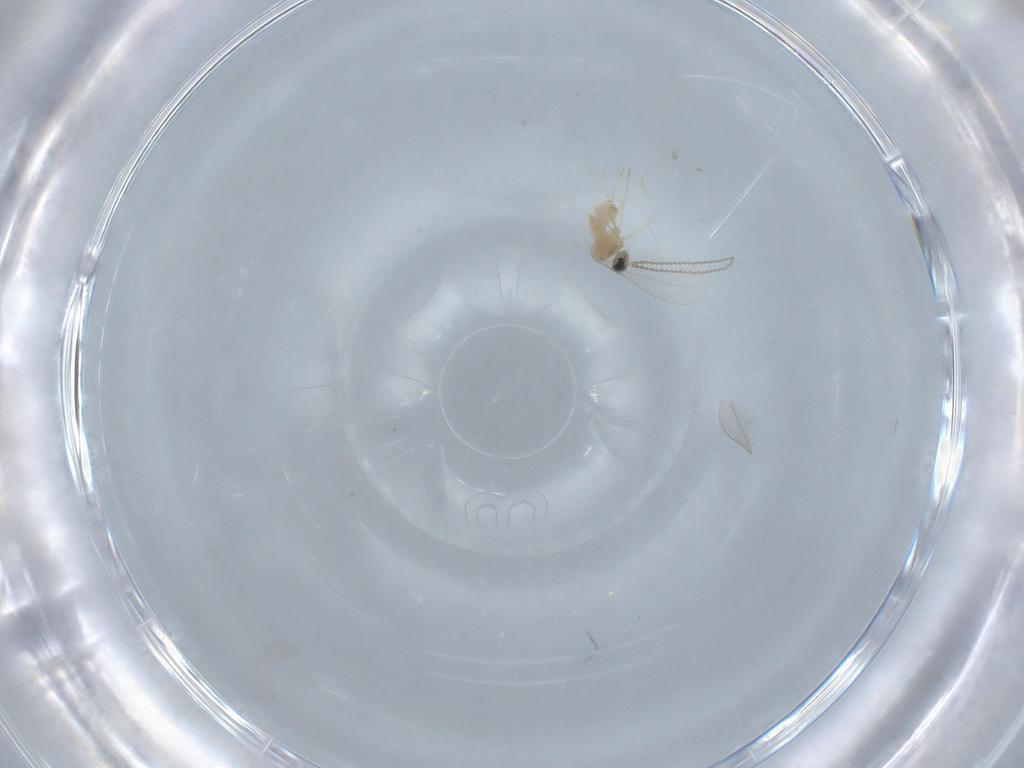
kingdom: Animalia
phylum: Arthropoda
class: Insecta
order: Diptera
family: Cecidomyiidae
